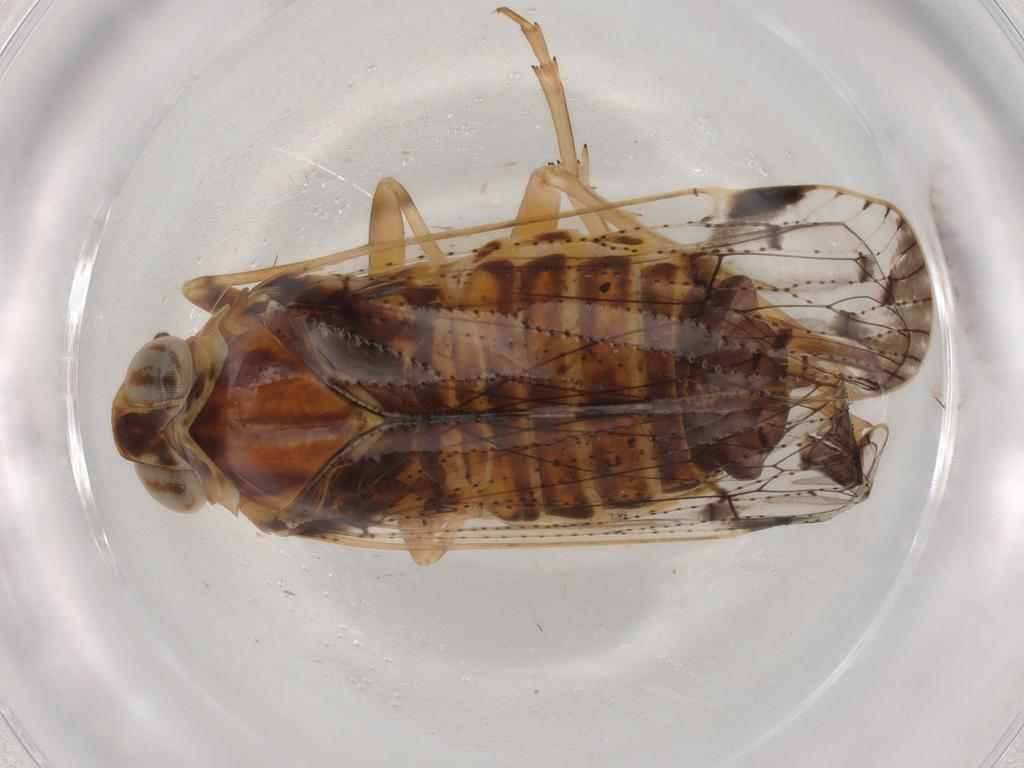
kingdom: Animalia
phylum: Arthropoda
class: Insecta
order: Hemiptera
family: Cixiidae
